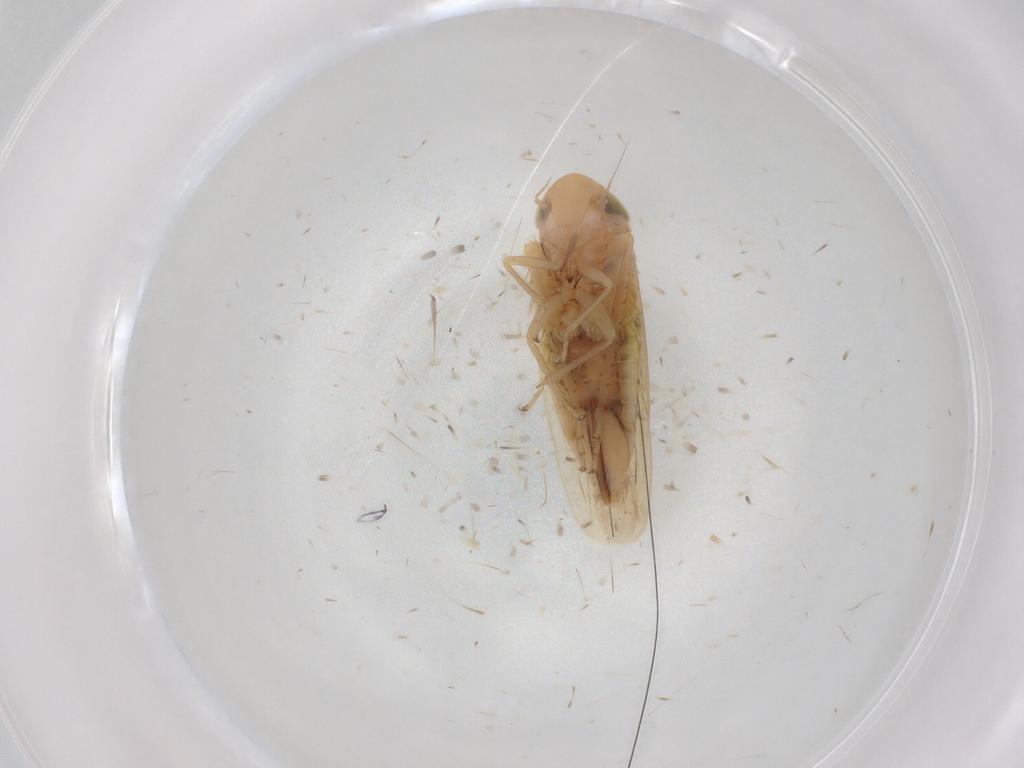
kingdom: Animalia
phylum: Arthropoda
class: Insecta
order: Hemiptera
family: Cicadellidae
